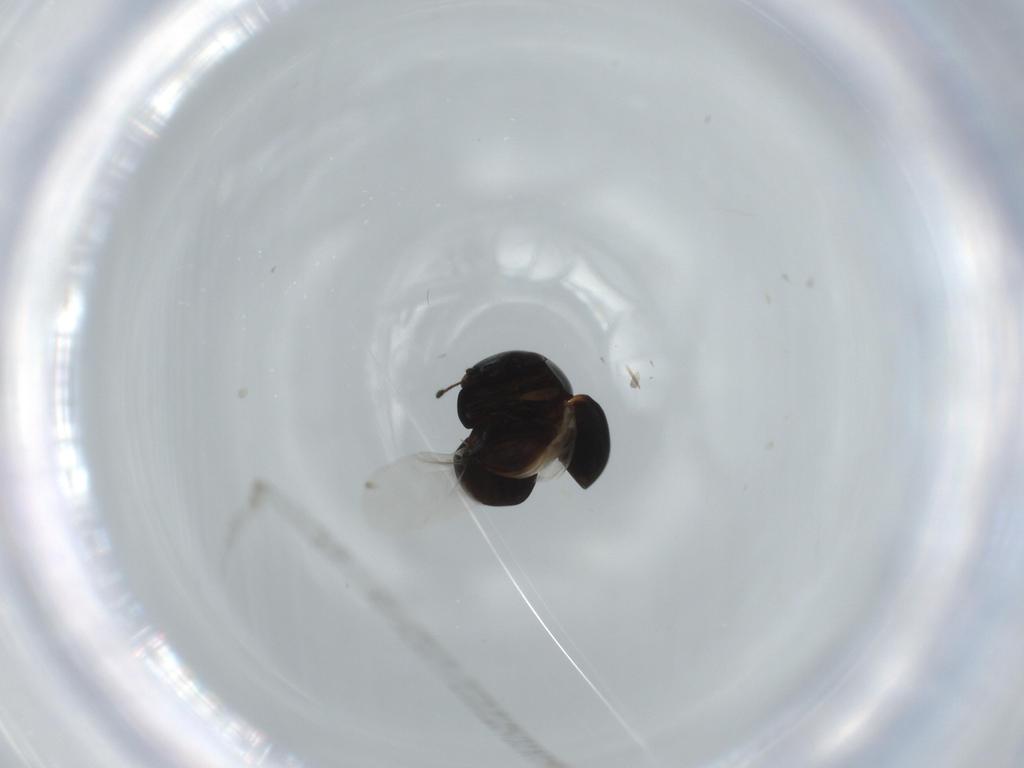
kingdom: Animalia
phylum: Arthropoda
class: Insecta
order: Coleoptera
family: Cybocephalidae
